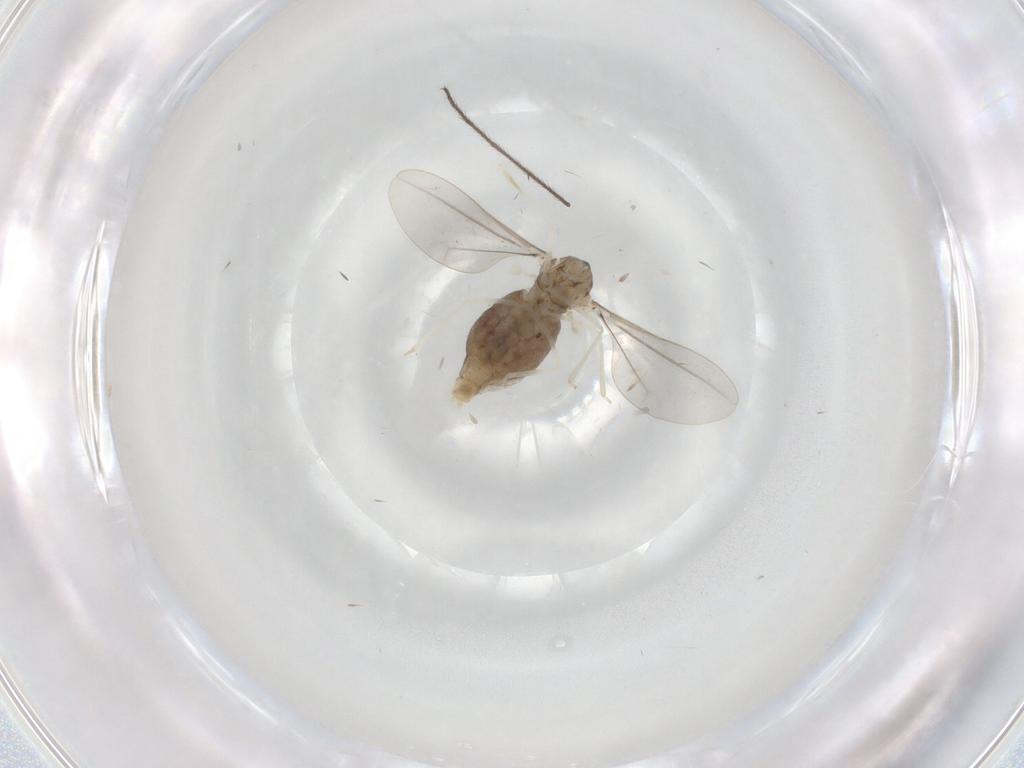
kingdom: Animalia
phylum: Arthropoda
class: Insecta
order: Diptera
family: Cecidomyiidae
